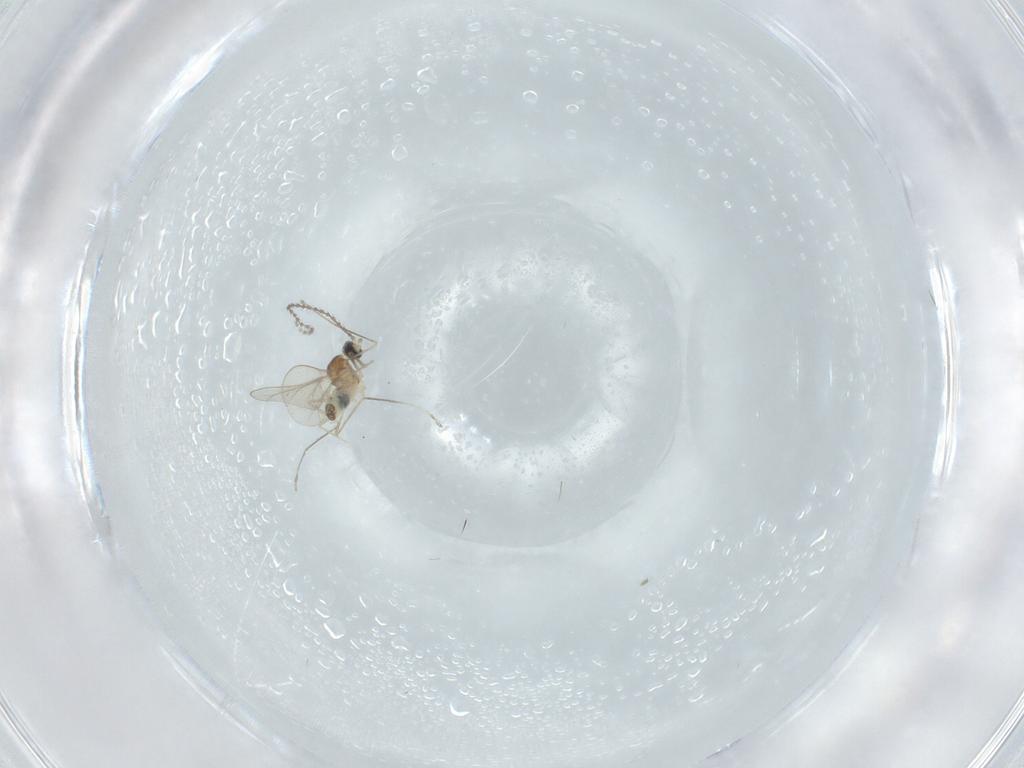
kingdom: Animalia
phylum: Arthropoda
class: Insecta
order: Diptera
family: Cecidomyiidae
